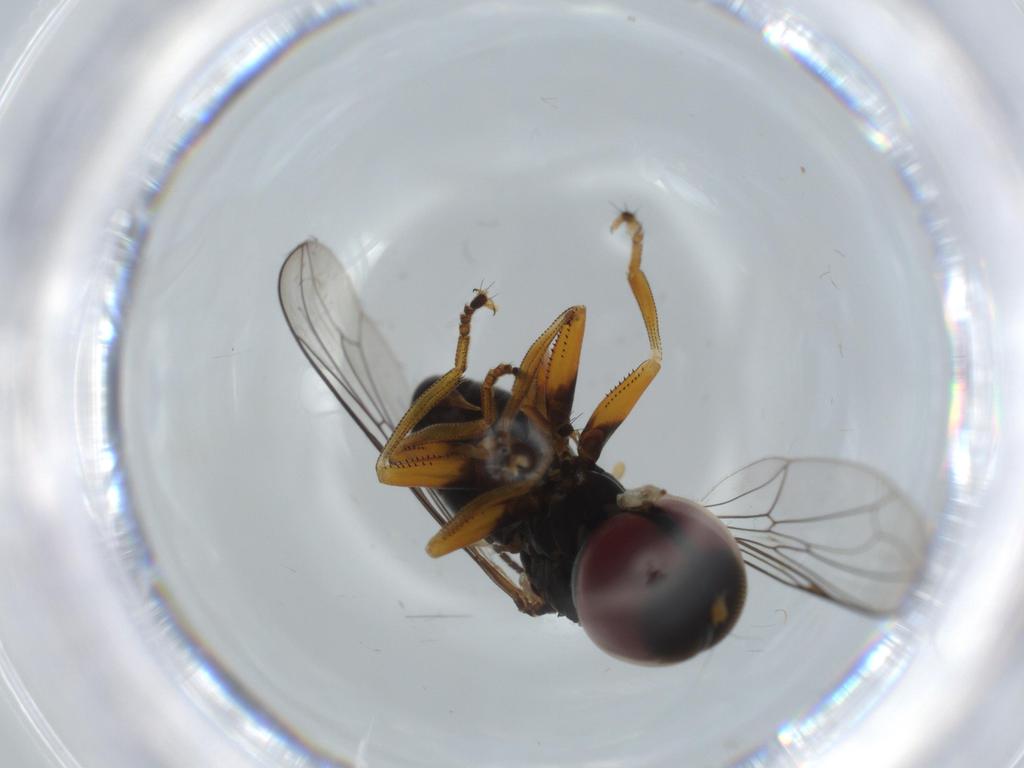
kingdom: Animalia
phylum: Arthropoda
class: Insecta
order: Diptera
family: Pipunculidae
